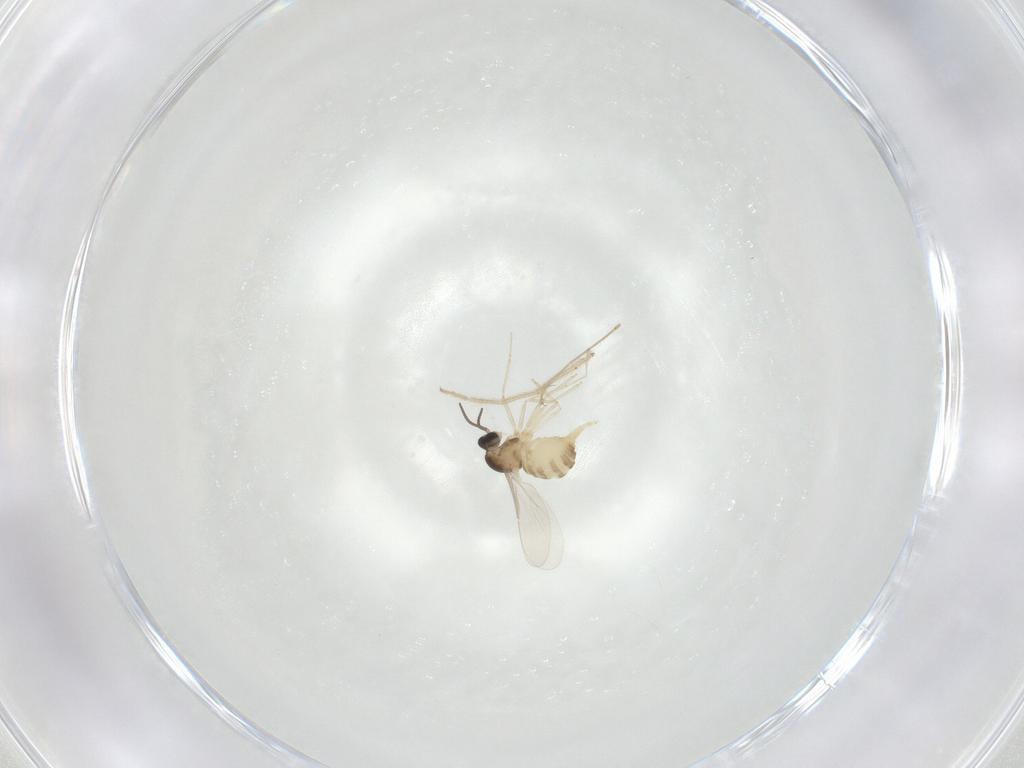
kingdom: Animalia
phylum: Arthropoda
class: Insecta
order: Diptera
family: Cecidomyiidae
